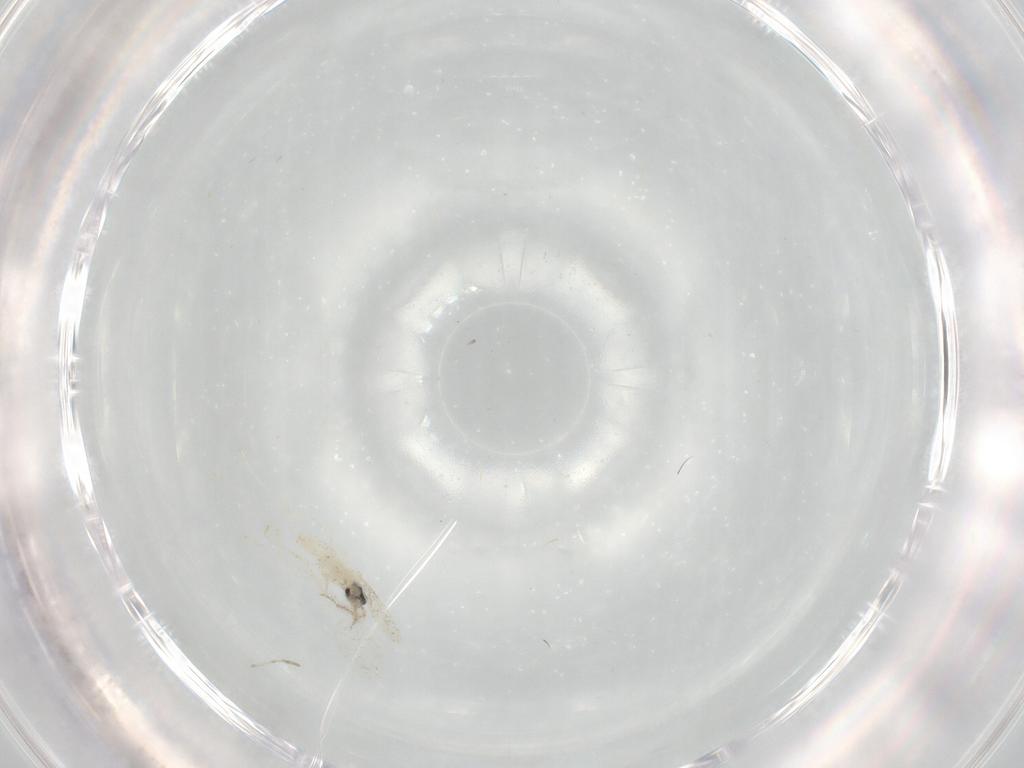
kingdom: Animalia
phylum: Arthropoda
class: Insecta
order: Diptera
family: Cecidomyiidae
